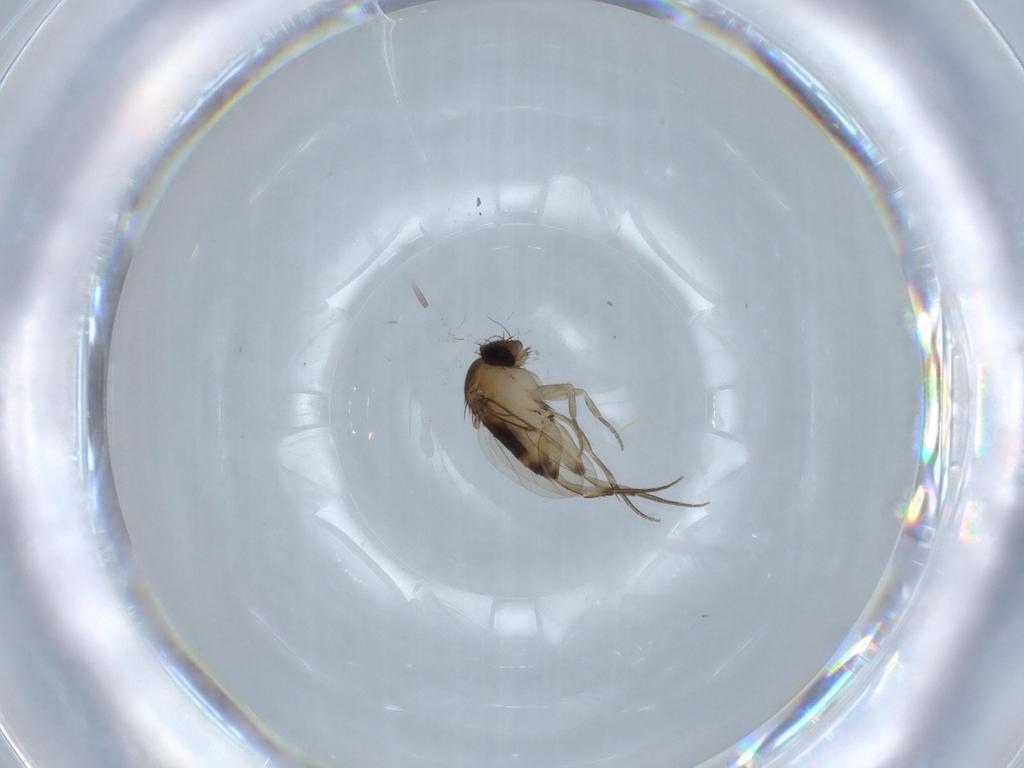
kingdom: Animalia
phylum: Arthropoda
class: Insecta
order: Diptera
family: Phoridae
